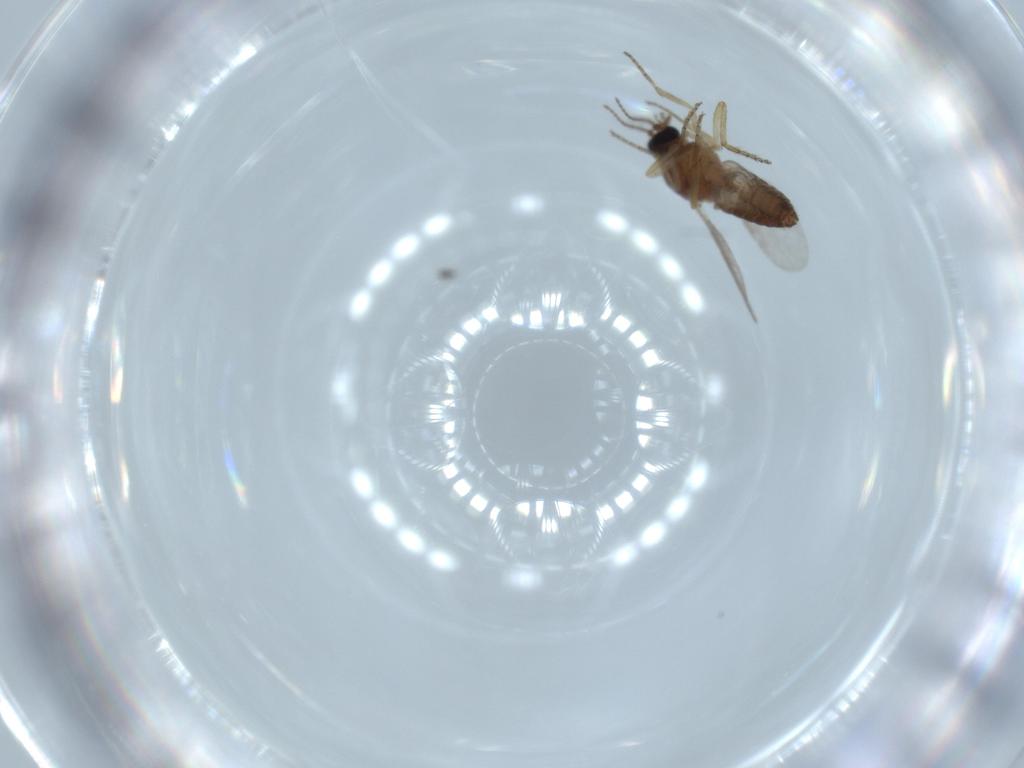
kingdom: Animalia
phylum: Arthropoda
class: Insecta
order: Diptera
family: Ceratopogonidae
